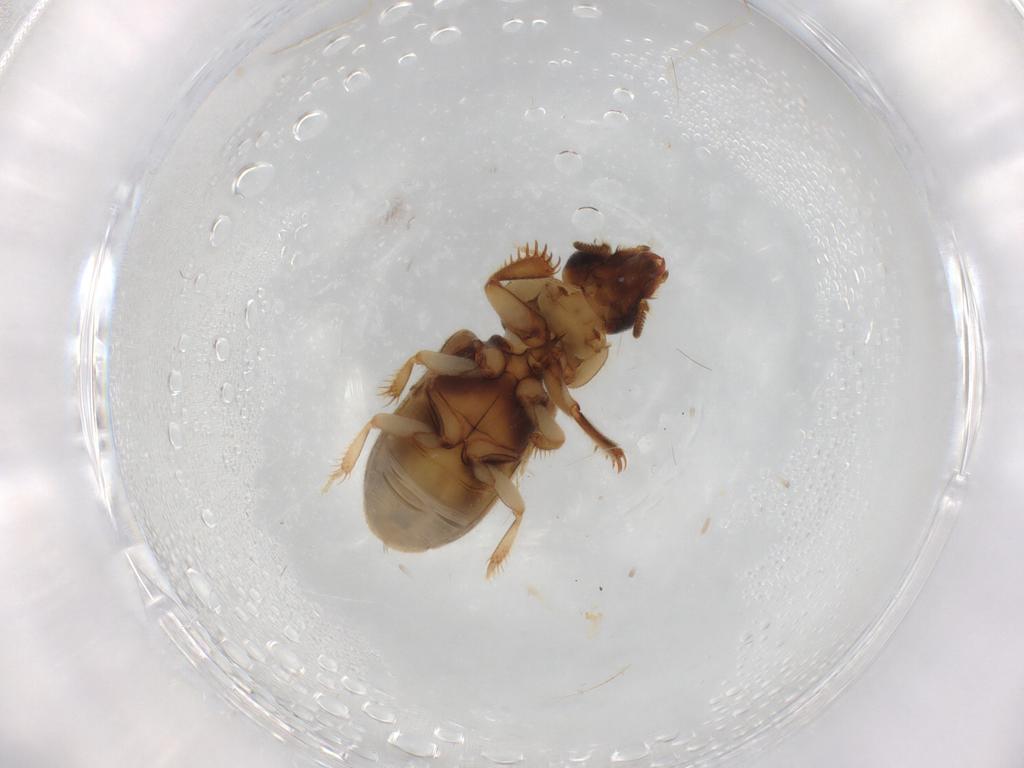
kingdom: Animalia
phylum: Arthropoda
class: Insecta
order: Coleoptera
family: Heteroceridae
